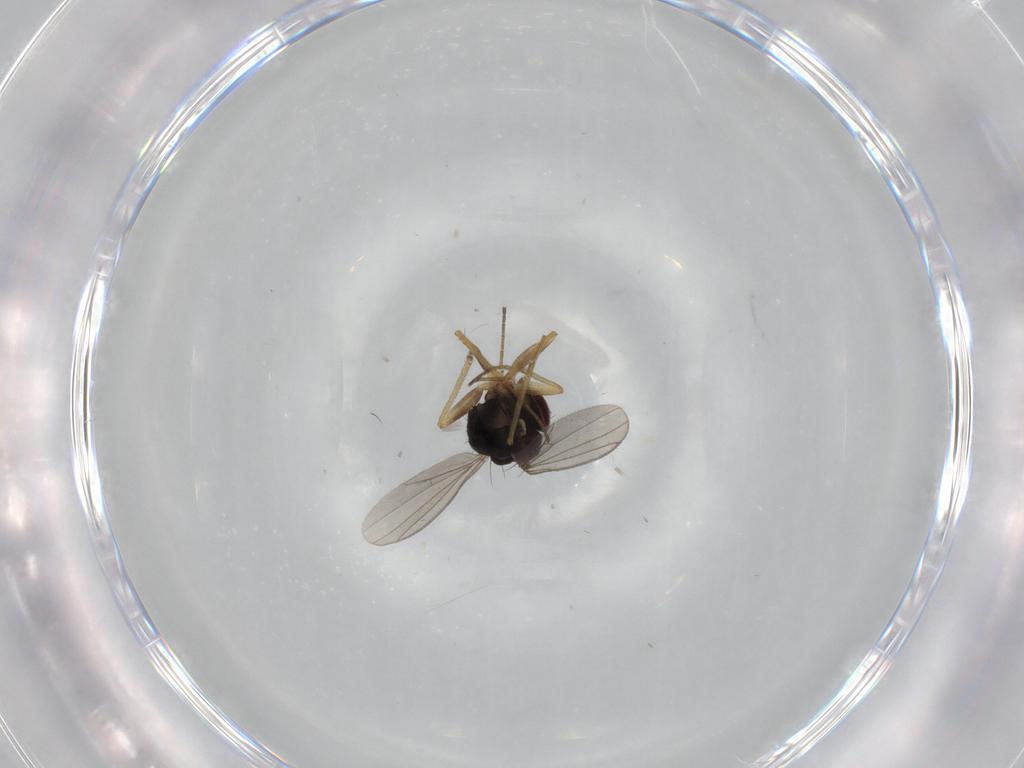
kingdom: Animalia
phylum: Arthropoda
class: Insecta
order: Diptera
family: Dolichopodidae
